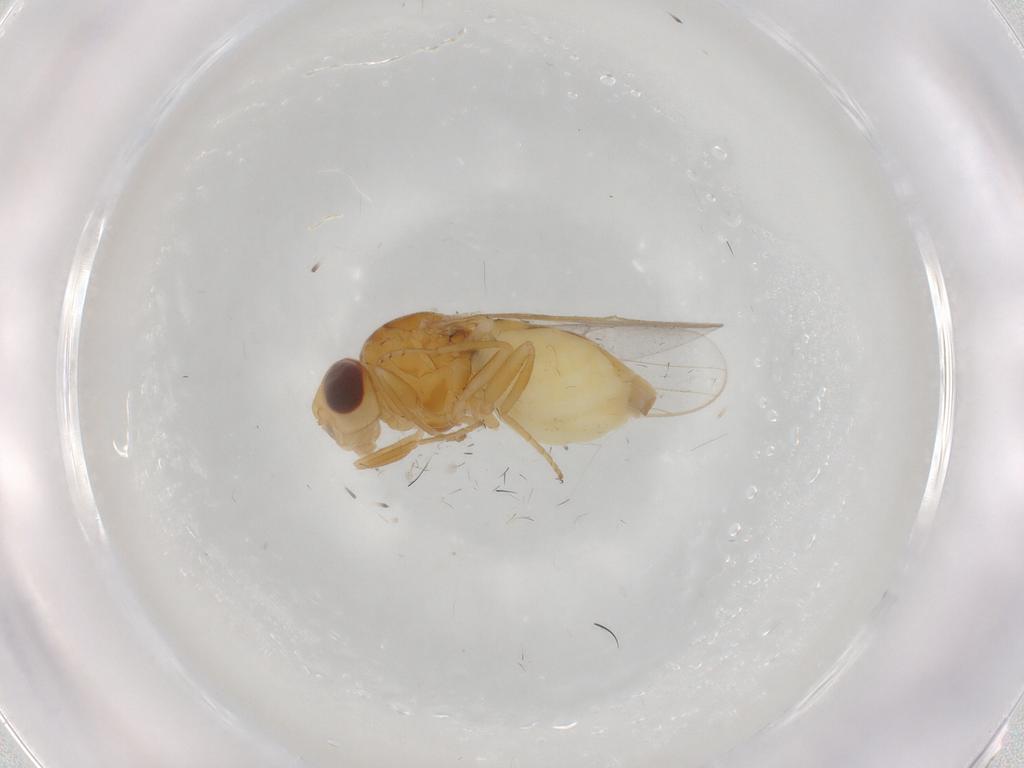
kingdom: Animalia
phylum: Arthropoda
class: Insecta
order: Diptera
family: Chloropidae
